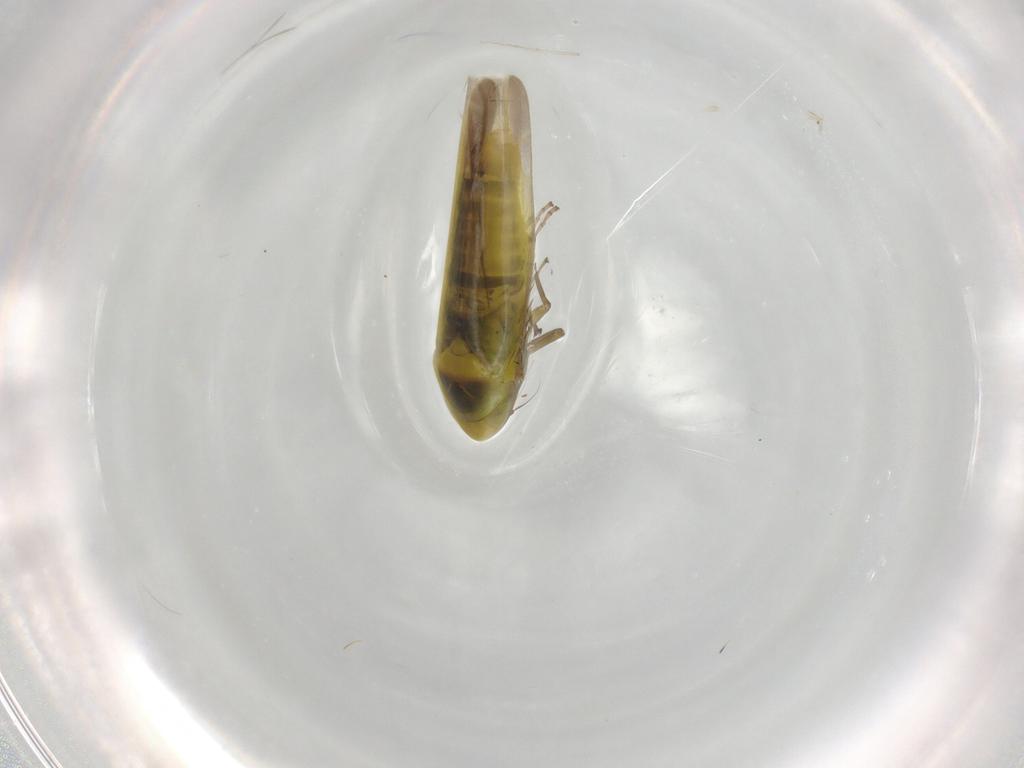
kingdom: Animalia
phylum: Arthropoda
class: Insecta
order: Hemiptera
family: Cicadellidae
